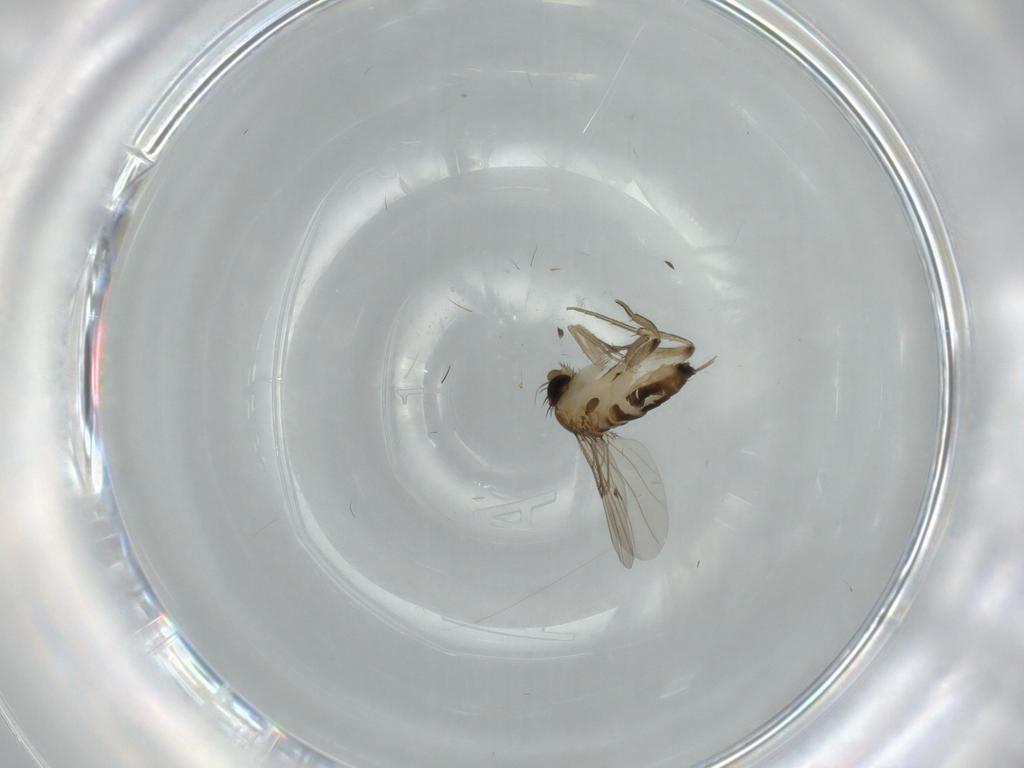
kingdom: Animalia
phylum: Arthropoda
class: Insecta
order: Diptera
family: Phoridae
